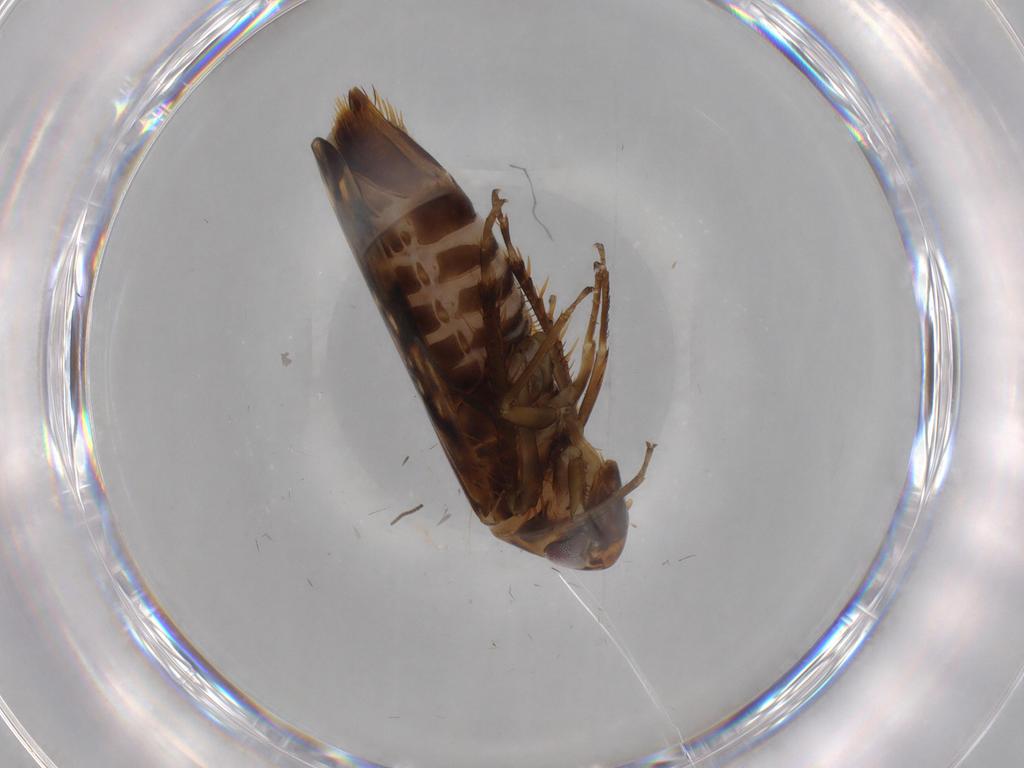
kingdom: Animalia
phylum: Arthropoda
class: Insecta
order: Hemiptera
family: Cicadellidae
